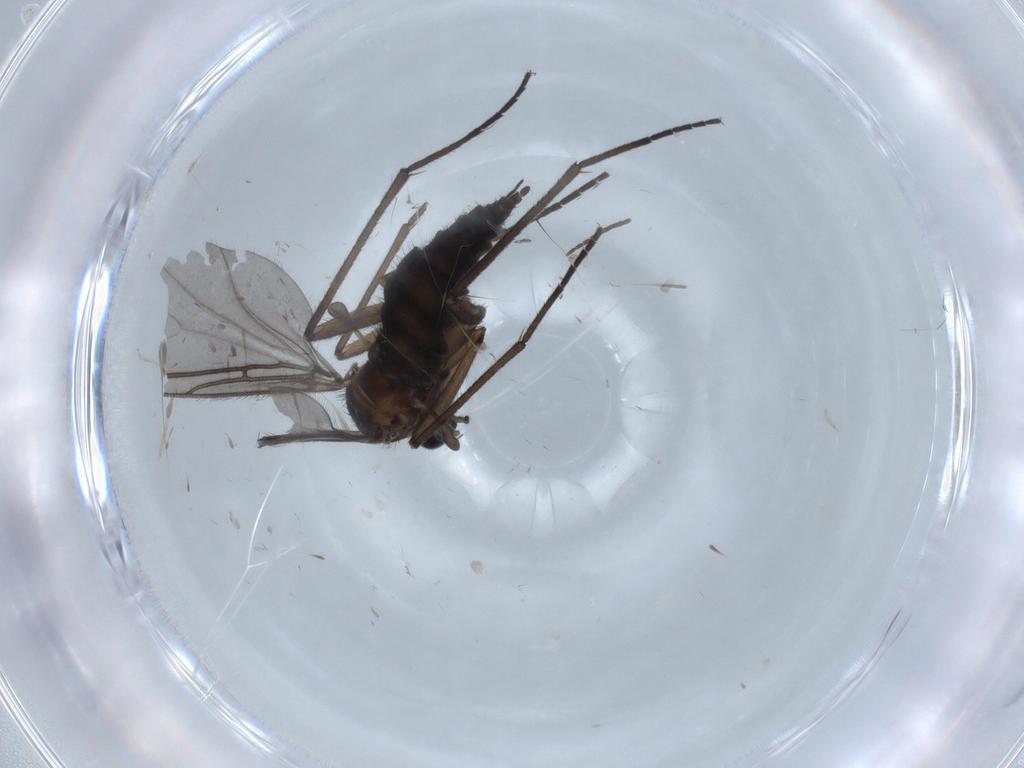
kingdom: Animalia
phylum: Arthropoda
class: Insecta
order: Diptera
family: Sciaridae
